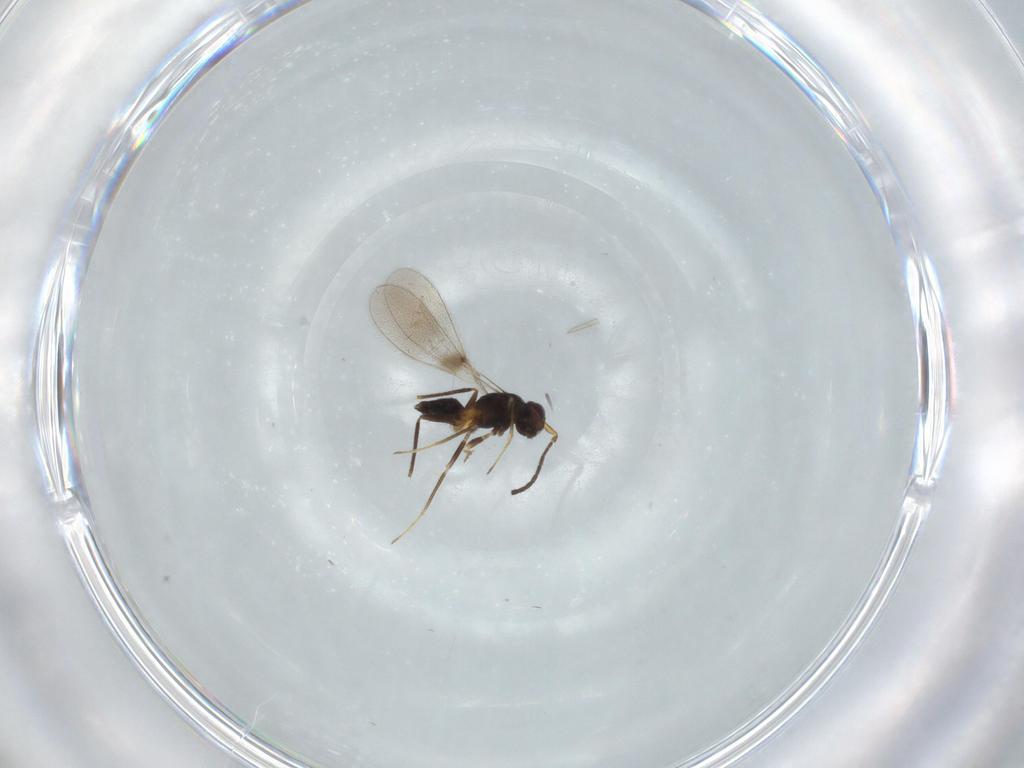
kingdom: Animalia
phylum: Arthropoda
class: Insecta
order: Hymenoptera
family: Mymaridae
